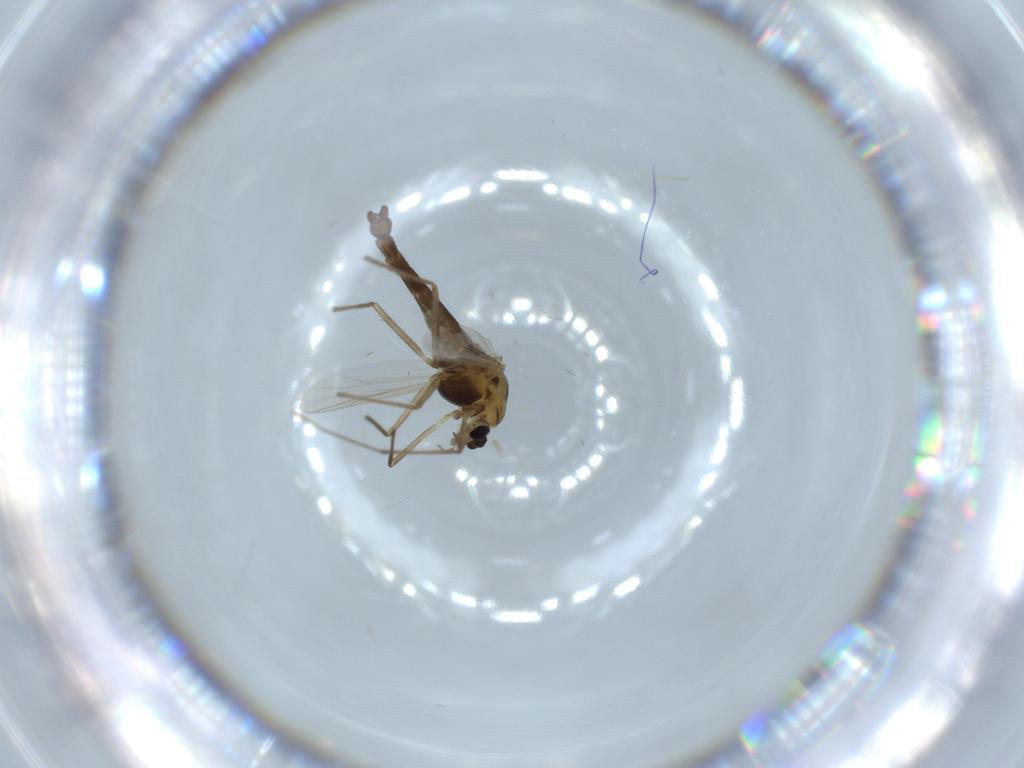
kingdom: Animalia
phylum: Arthropoda
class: Insecta
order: Diptera
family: Chironomidae
